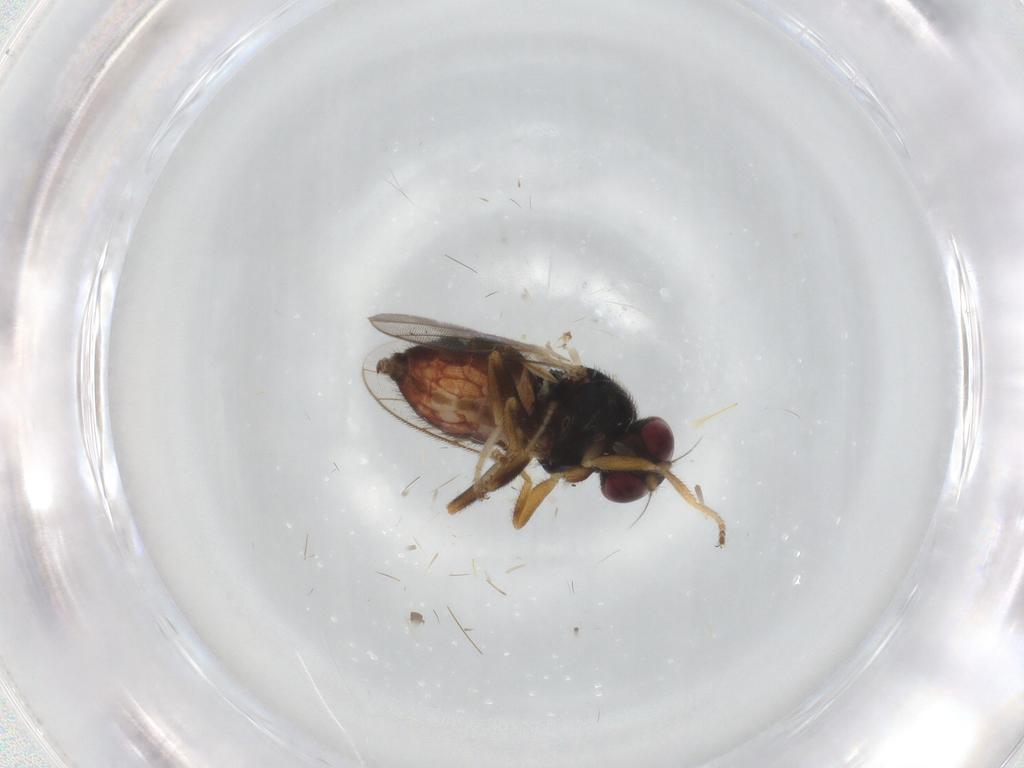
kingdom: Animalia
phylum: Arthropoda
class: Insecta
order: Diptera
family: Chloropidae
